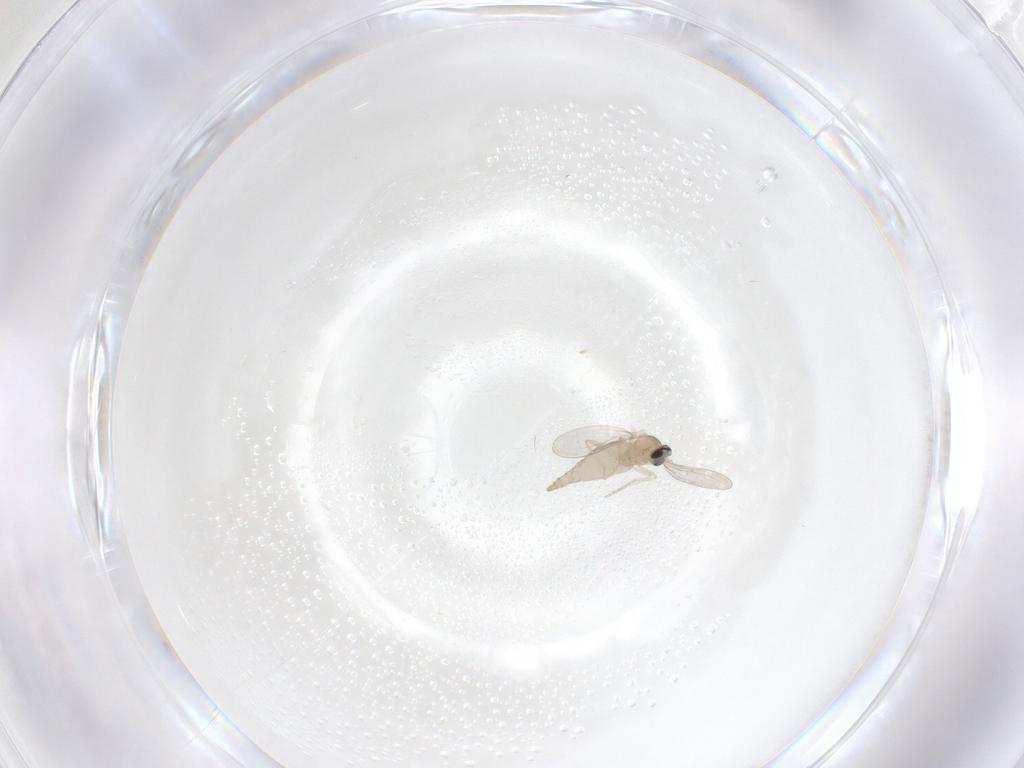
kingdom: Animalia
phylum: Arthropoda
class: Insecta
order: Diptera
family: Cecidomyiidae
